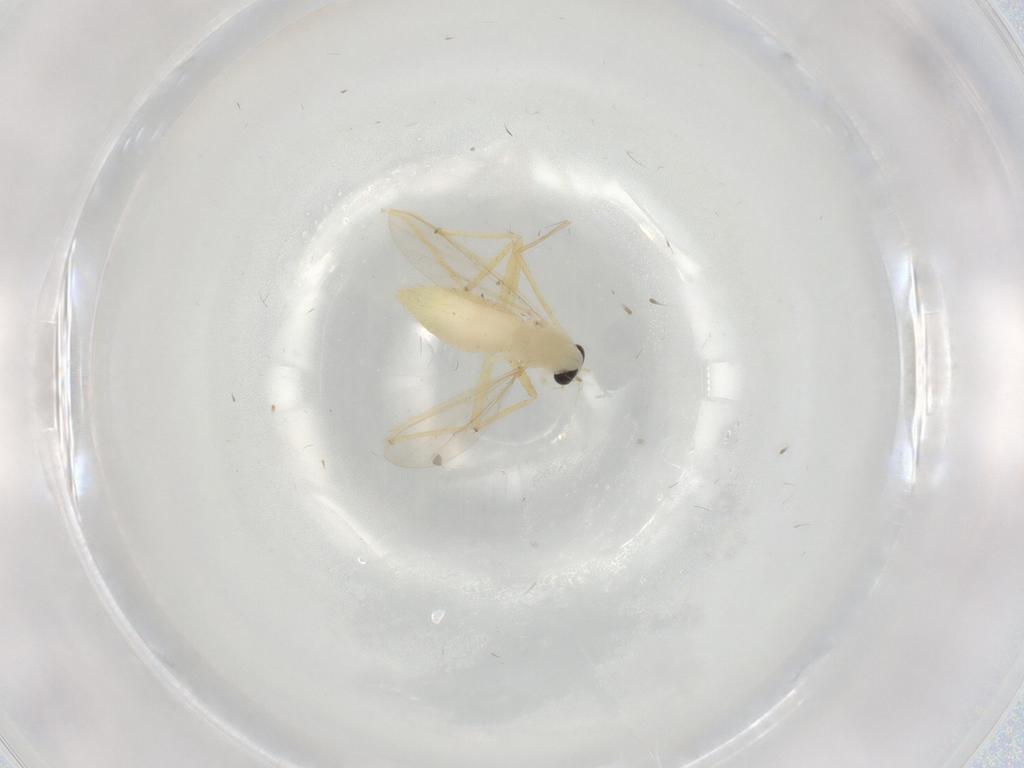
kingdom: Animalia
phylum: Arthropoda
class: Insecta
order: Diptera
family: Chironomidae
